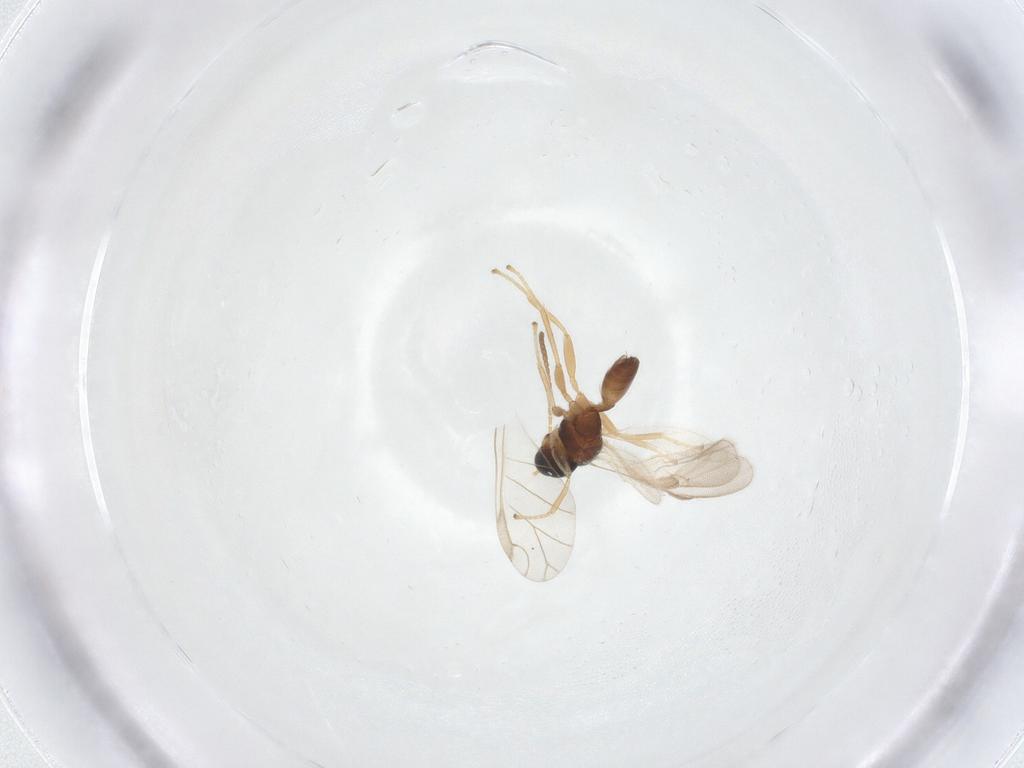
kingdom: Animalia
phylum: Arthropoda
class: Insecta
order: Hymenoptera
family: Braconidae
